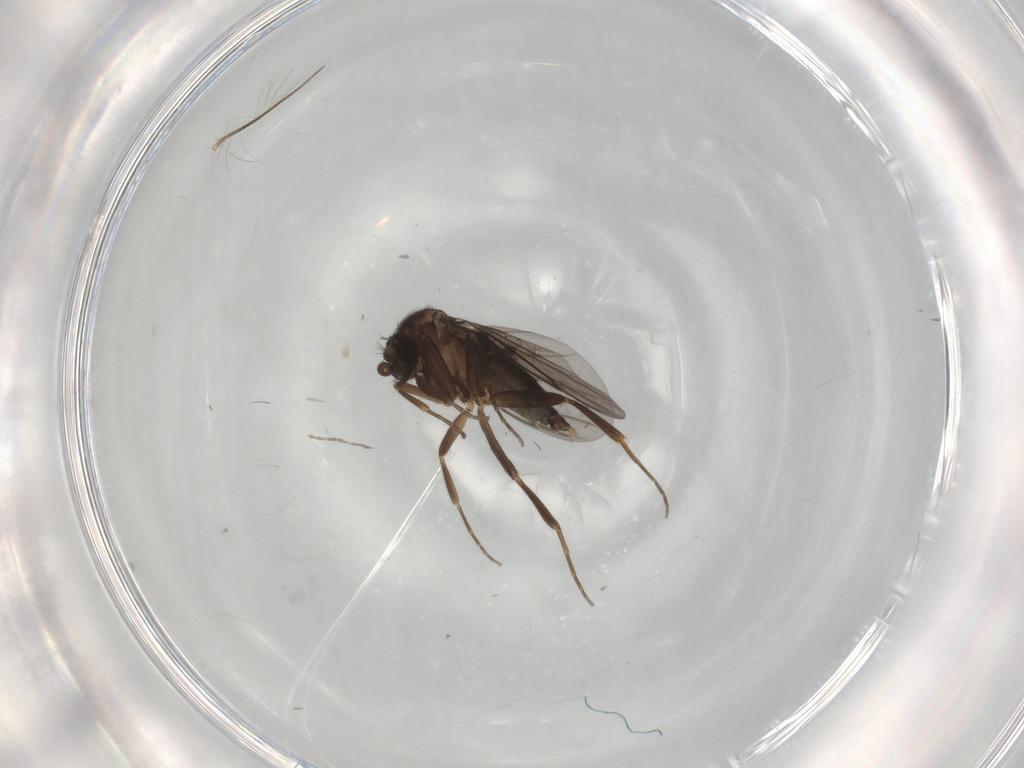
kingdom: Animalia
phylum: Arthropoda
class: Insecta
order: Diptera
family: Chironomidae
